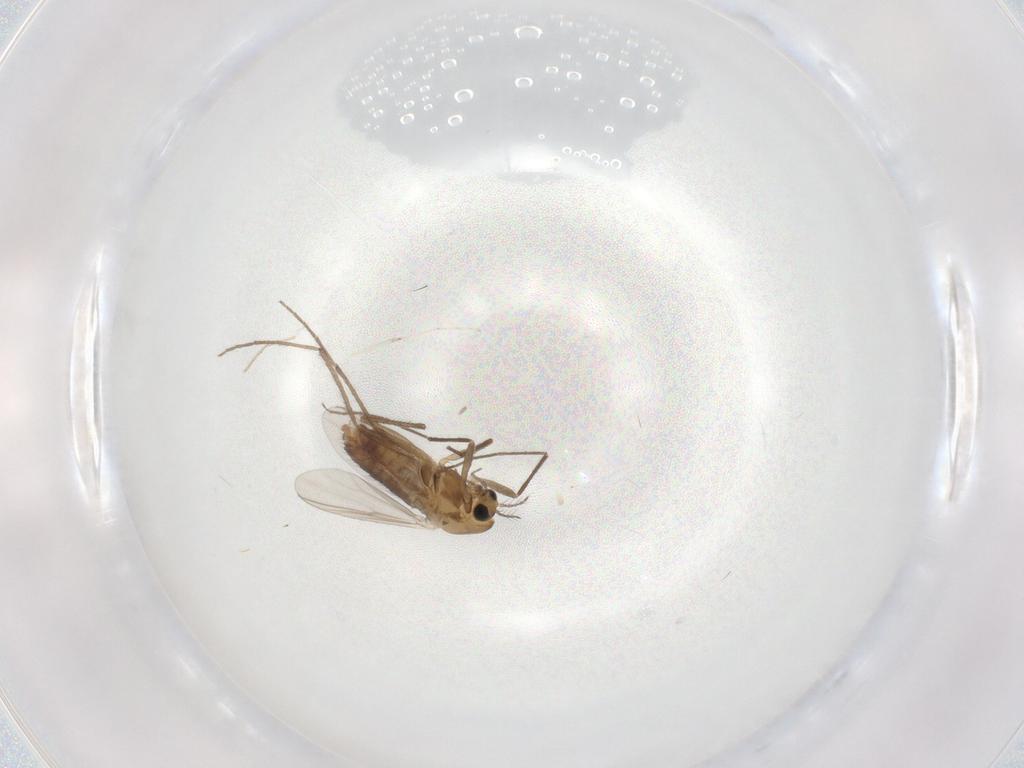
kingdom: Animalia
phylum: Arthropoda
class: Insecta
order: Diptera
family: Chironomidae
